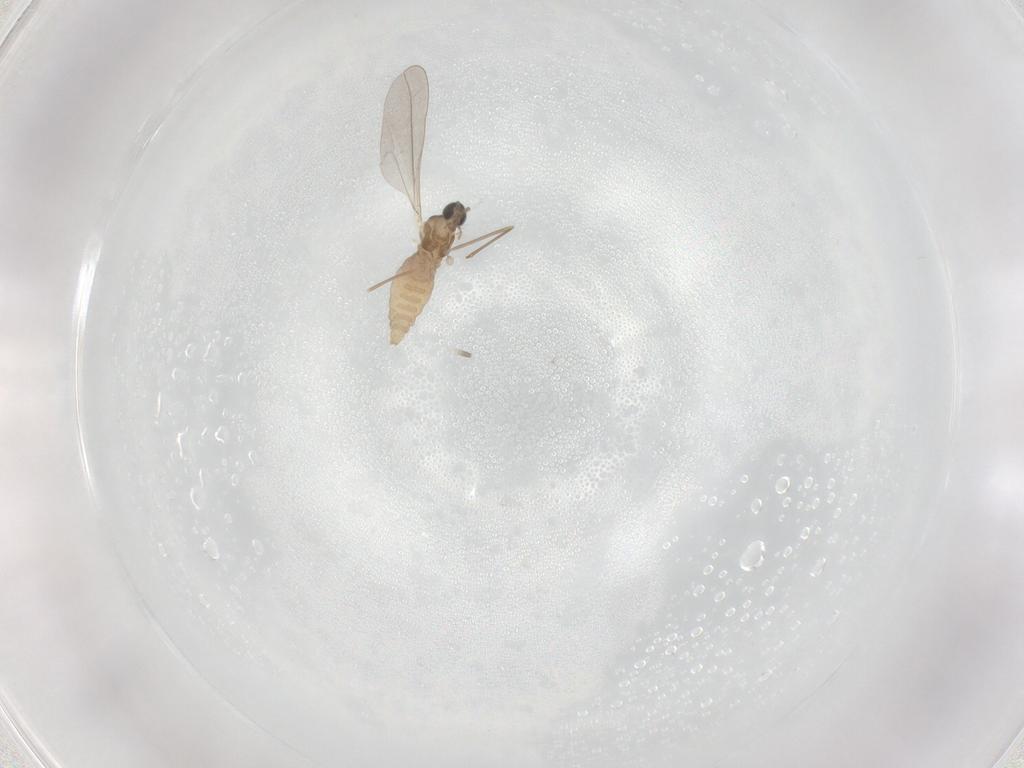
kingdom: Animalia
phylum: Arthropoda
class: Insecta
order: Diptera
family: Cecidomyiidae
